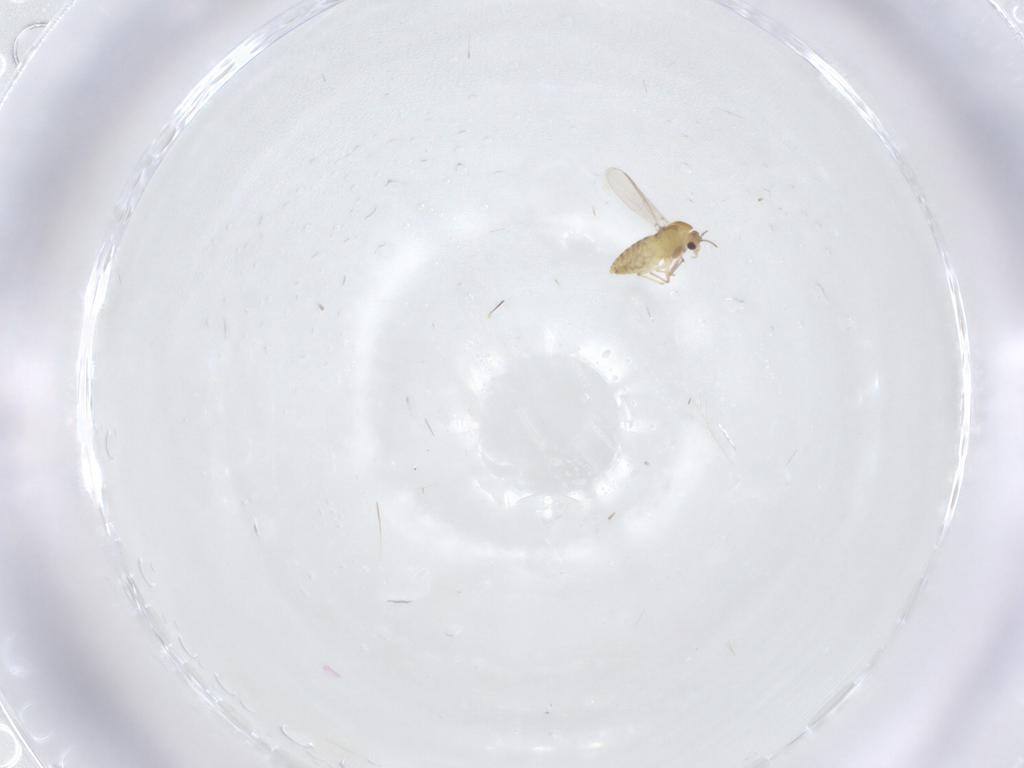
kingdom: Animalia
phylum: Arthropoda
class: Insecta
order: Diptera
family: Chironomidae
